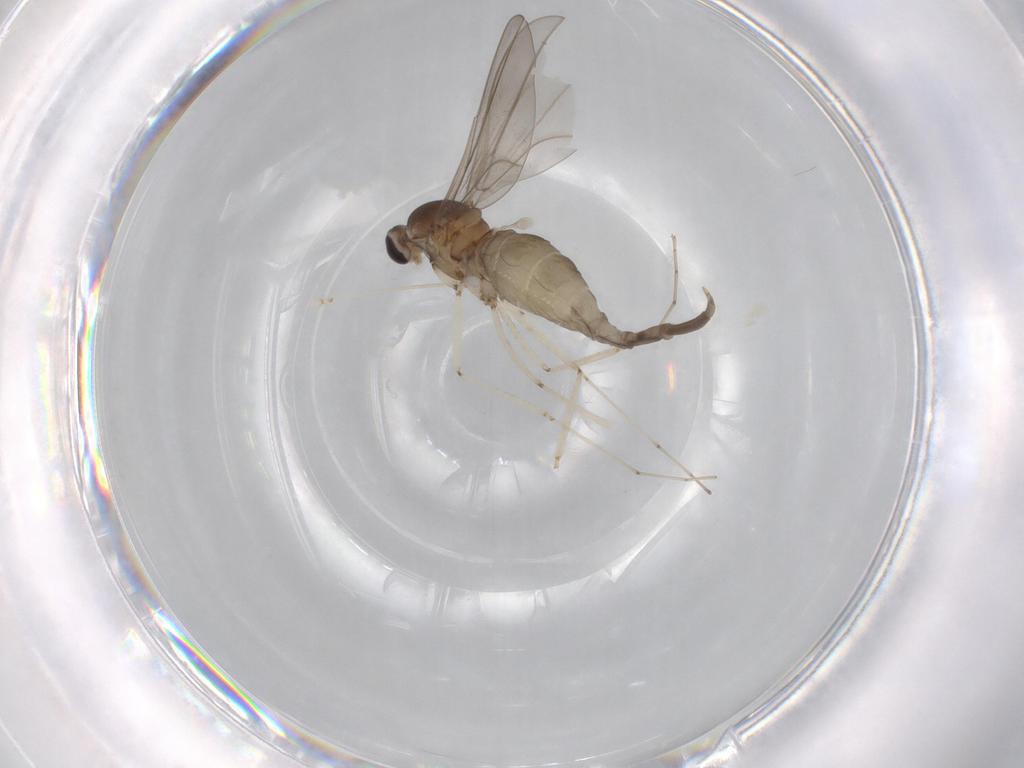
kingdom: Animalia
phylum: Arthropoda
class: Insecta
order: Diptera
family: Cecidomyiidae
